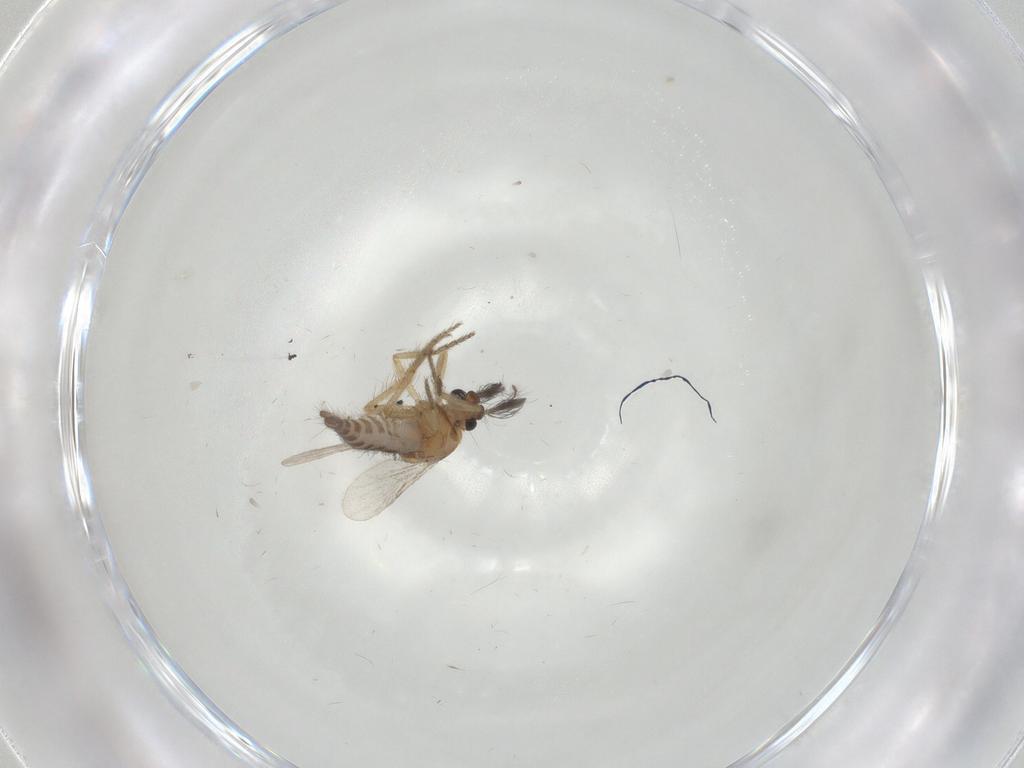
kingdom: Animalia
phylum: Arthropoda
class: Insecta
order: Diptera
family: Ceratopogonidae
